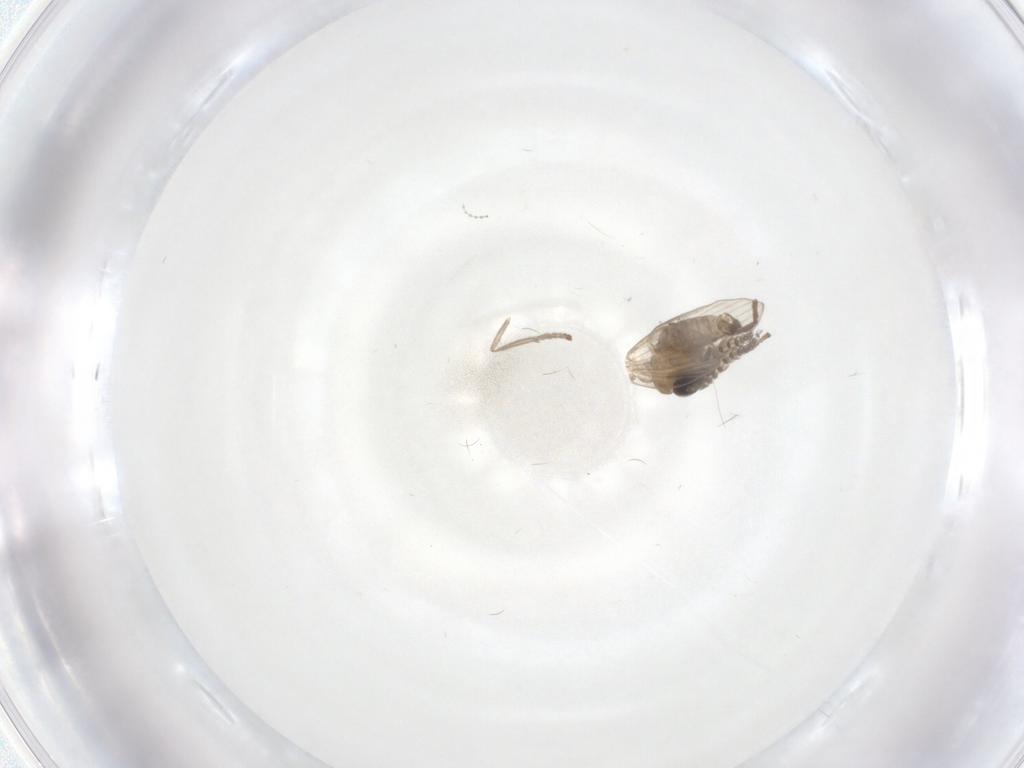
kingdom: Animalia
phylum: Arthropoda
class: Insecta
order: Diptera
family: Psychodidae
